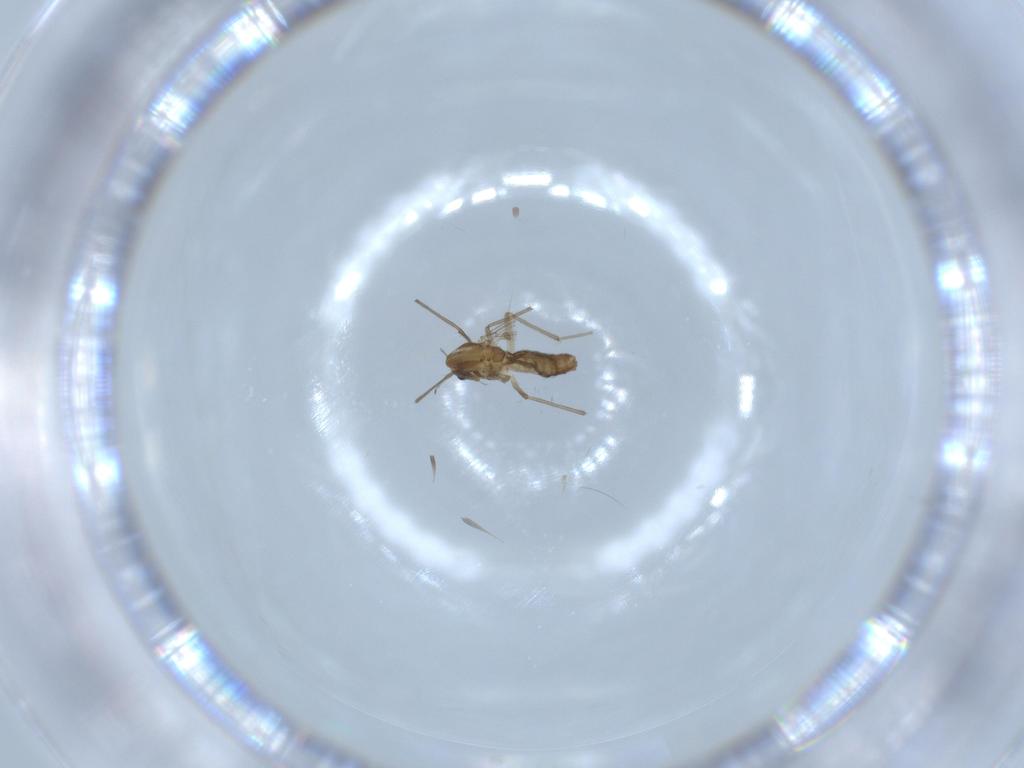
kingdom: Animalia
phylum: Arthropoda
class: Insecta
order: Diptera
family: Chironomidae
